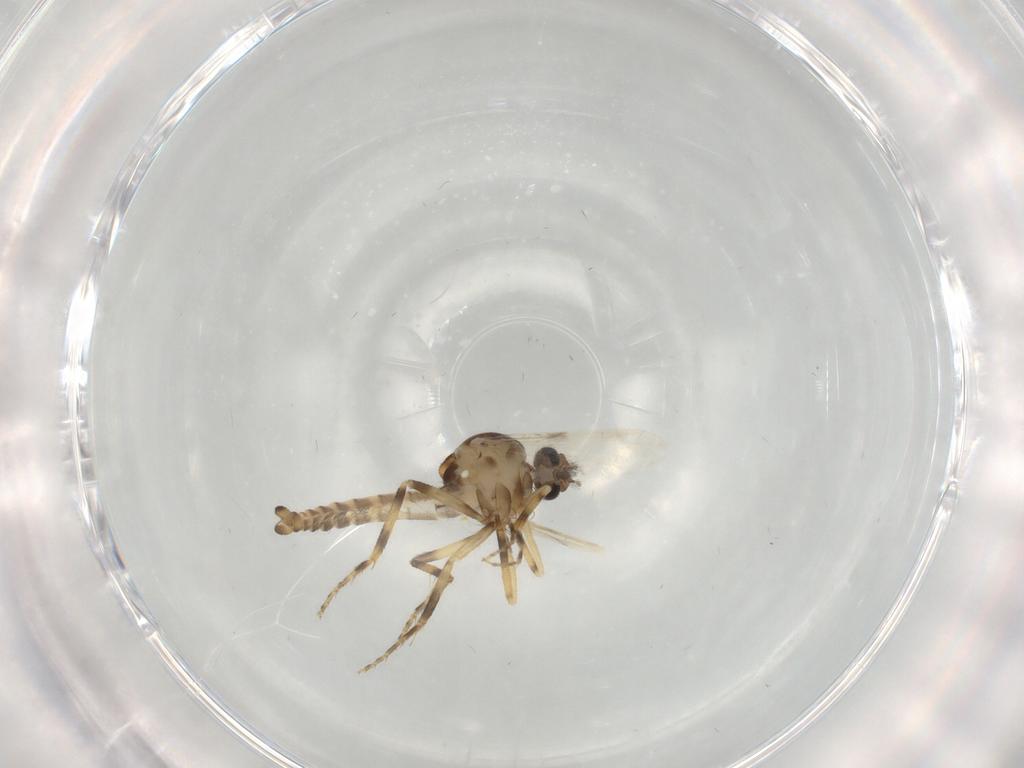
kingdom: Animalia
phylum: Arthropoda
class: Insecta
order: Diptera
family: Ceratopogonidae
